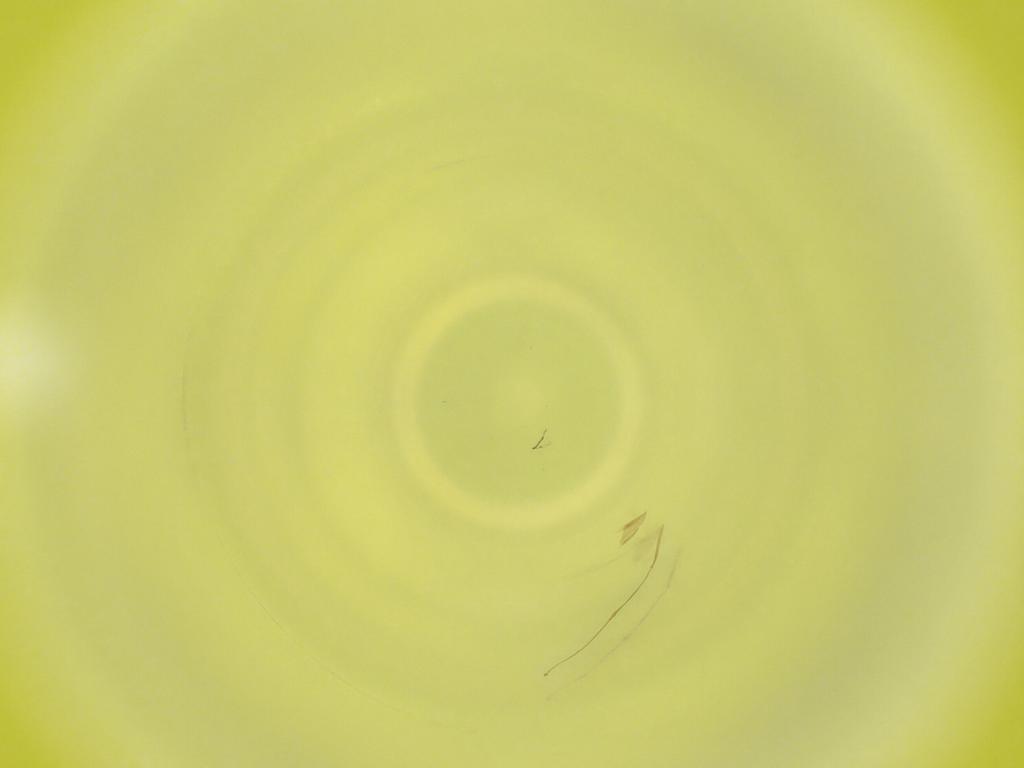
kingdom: Animalia
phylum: Arthropoda
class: Insecta
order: Diptera
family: Cecidomyiidae
